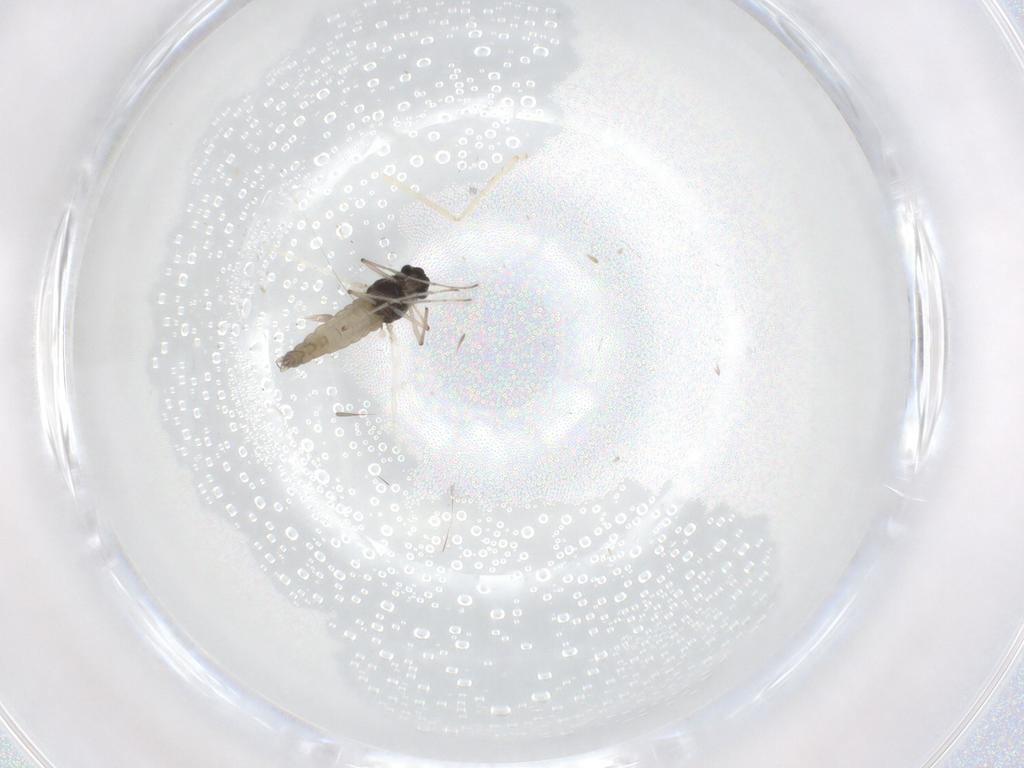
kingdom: Animalia
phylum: Arthropoda
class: Insecta
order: Diptera
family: Chironomidae
